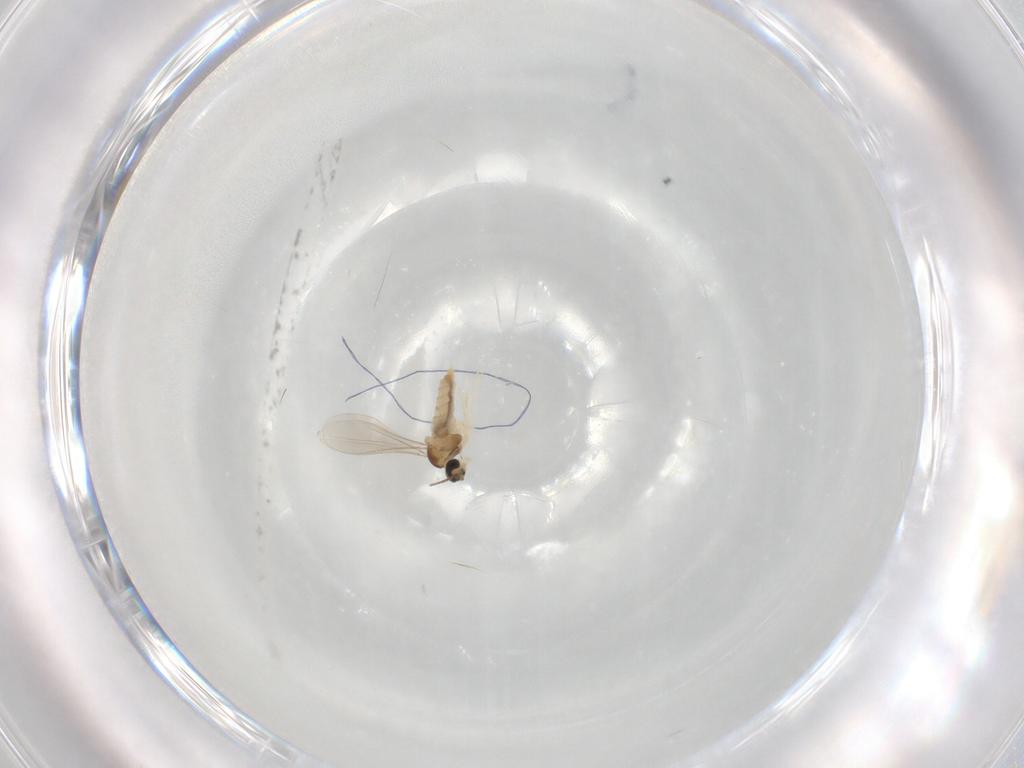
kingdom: Animalia
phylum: Arthropoda
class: Insecta
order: Diptera
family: Cecidomyiidae
